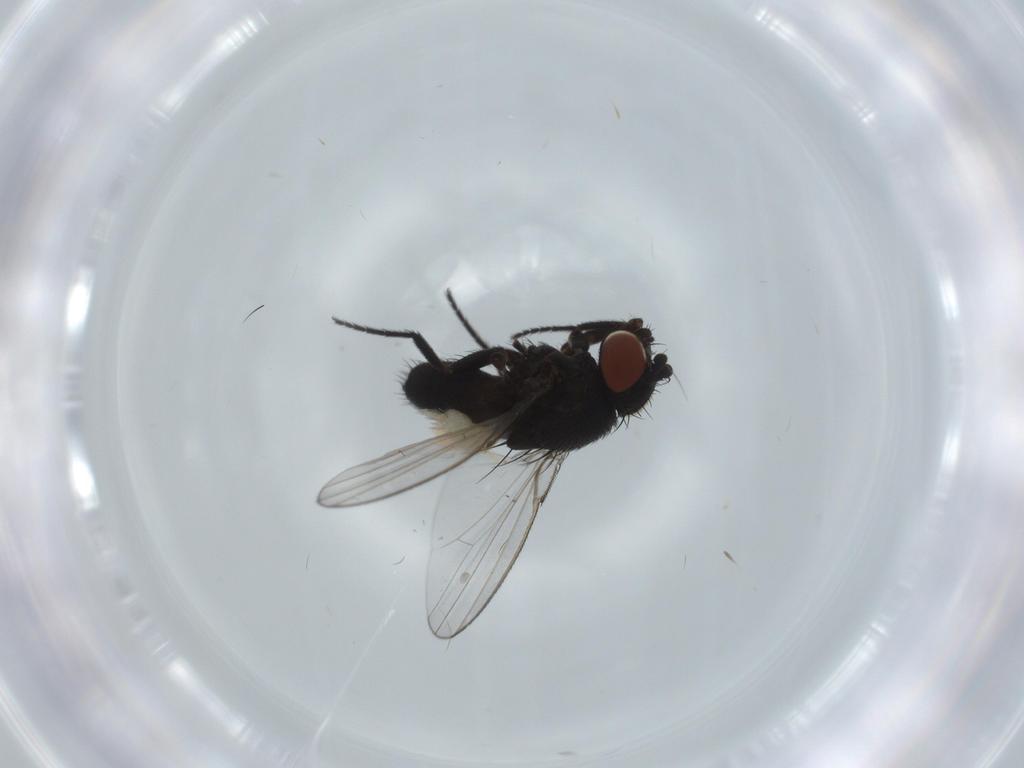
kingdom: Animalia
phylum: Arthropoda
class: Insecta
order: Diptera
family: Milichiidae
